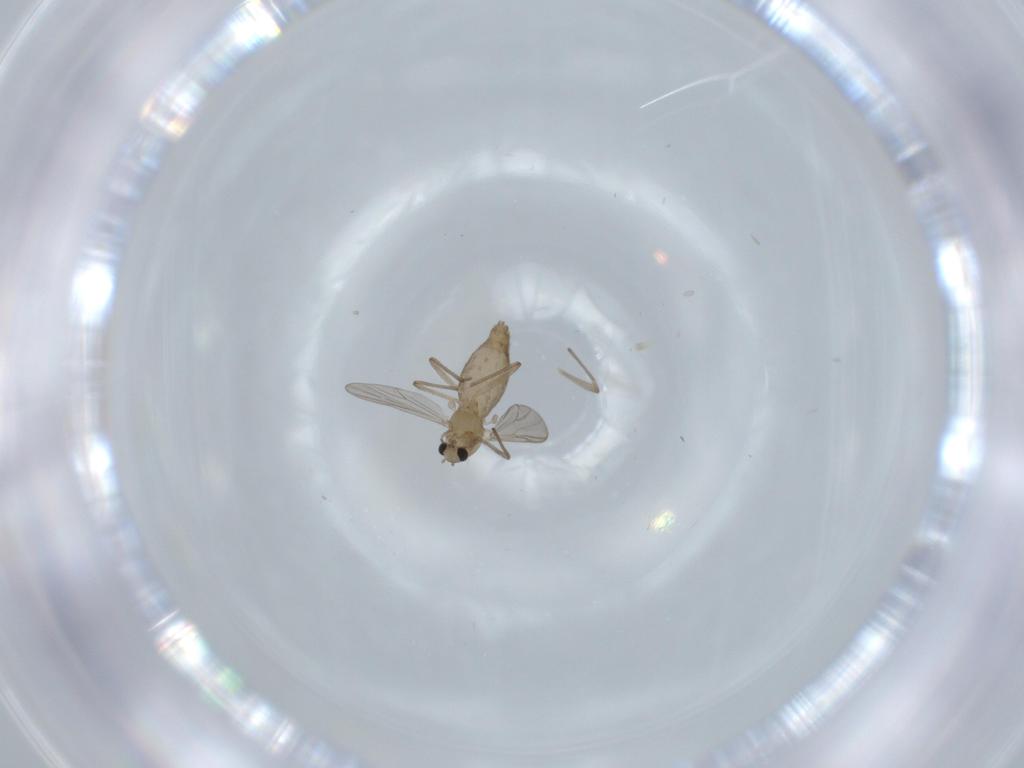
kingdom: Animalia
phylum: Arthropoda
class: Insecta
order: Diptera
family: Chironomidae
